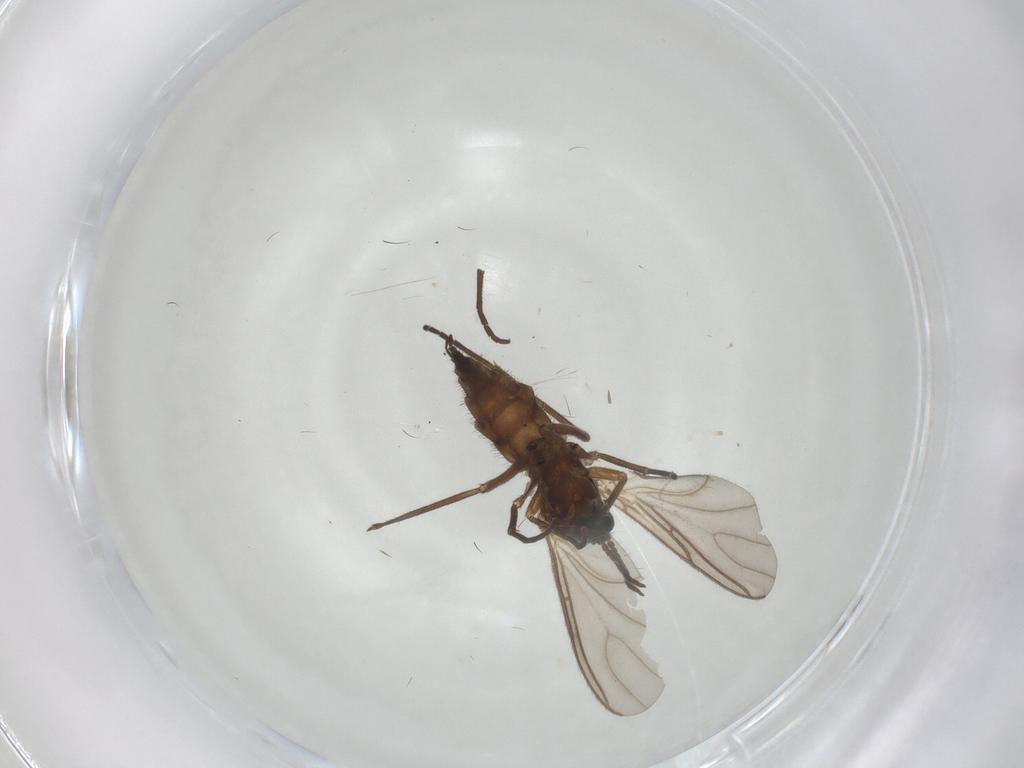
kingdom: Animalia
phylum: Arthropoda
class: Insecta
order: Diptera
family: Sciaridae
